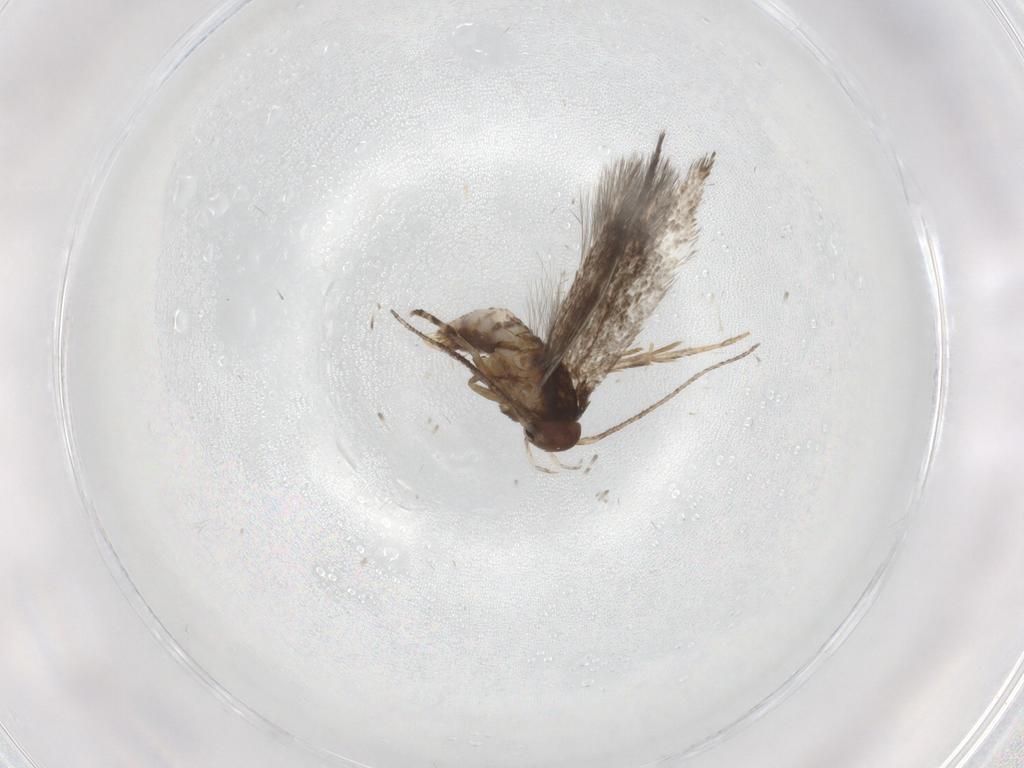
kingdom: Animalia
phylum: Arthropoda
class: Insecta
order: Lepidoptera
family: Elachistidae
